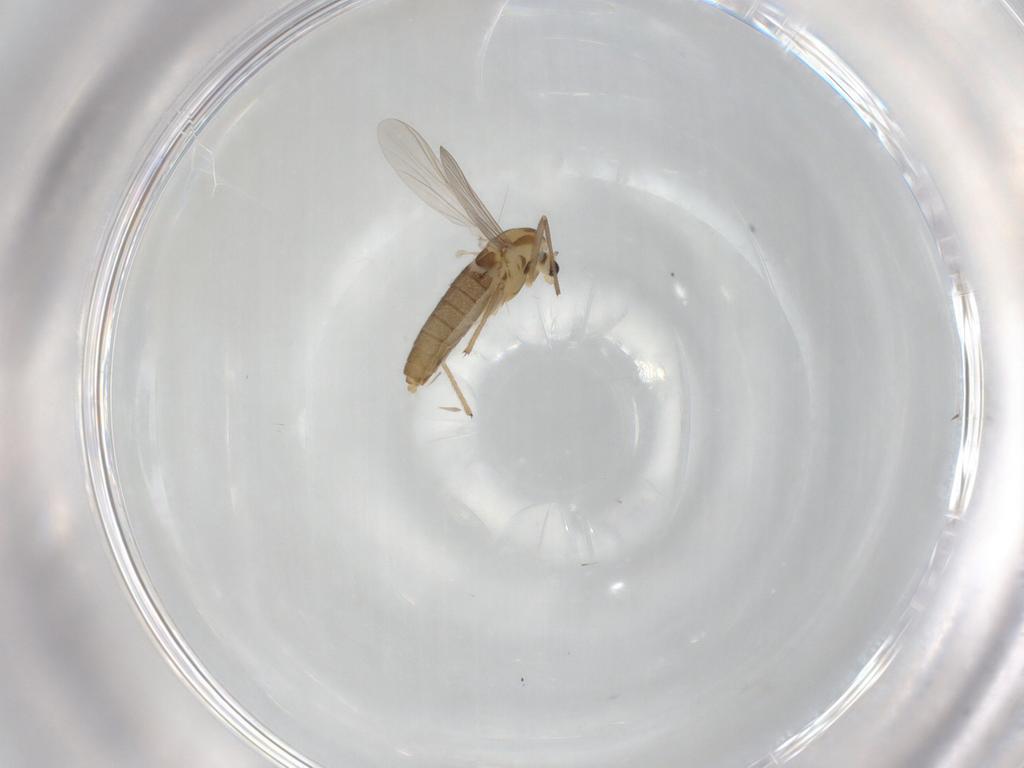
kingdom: Animalia
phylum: Arthropoda
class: Insecta
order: Diptera
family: Chironomidae
